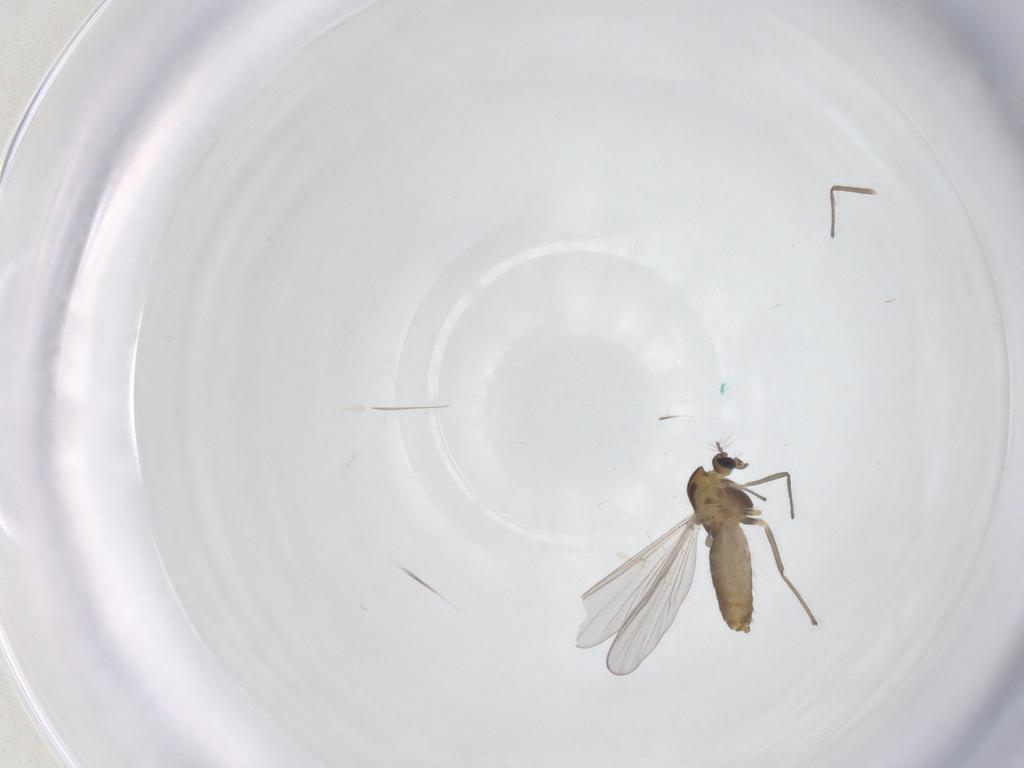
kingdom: Animalia
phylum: Arthropoda
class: Insecta
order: Diptera
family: Chironomidae
